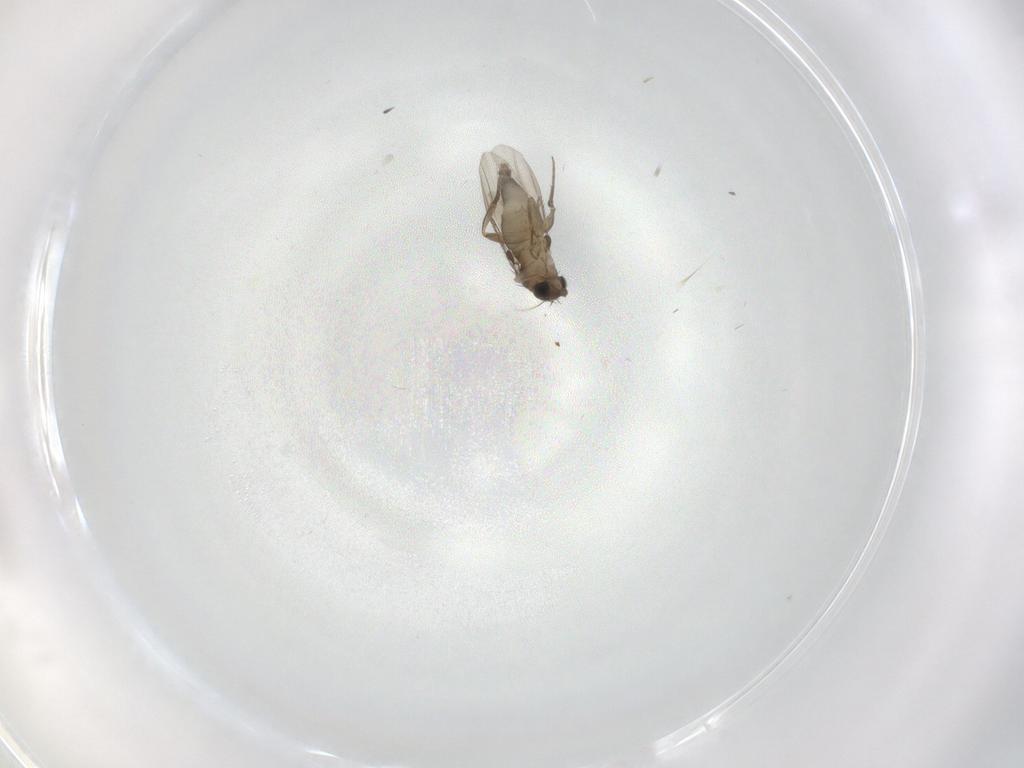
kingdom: Animalia
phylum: Arthropoda
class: Insecta
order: Diptera
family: Phoridae
